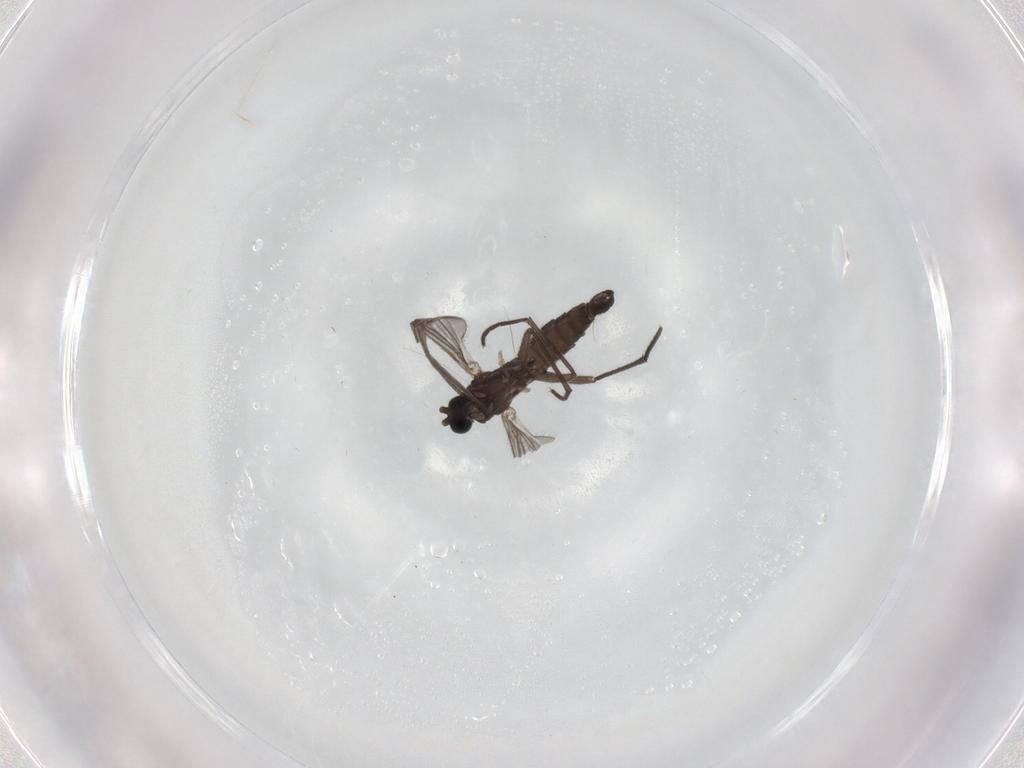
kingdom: Animalia
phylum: Arthropoda
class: Insecta
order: Diptera
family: Sciaridae
